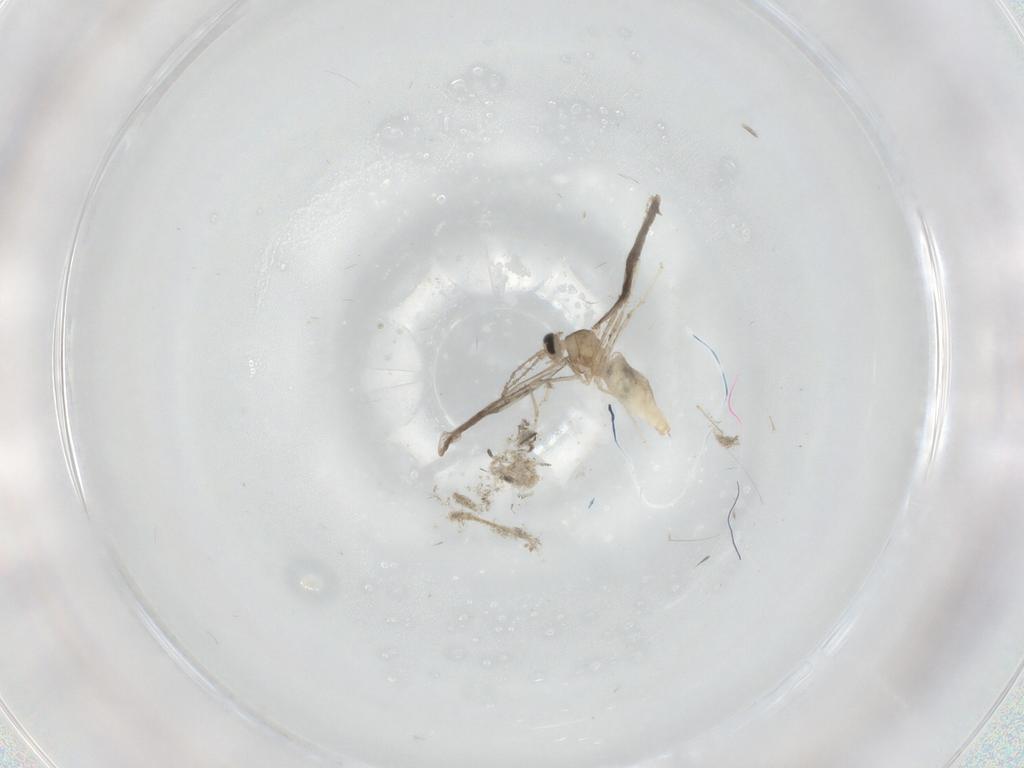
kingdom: Animalia
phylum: Arthropoda
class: Insecta
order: Diptera
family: Cecidomyiidae
